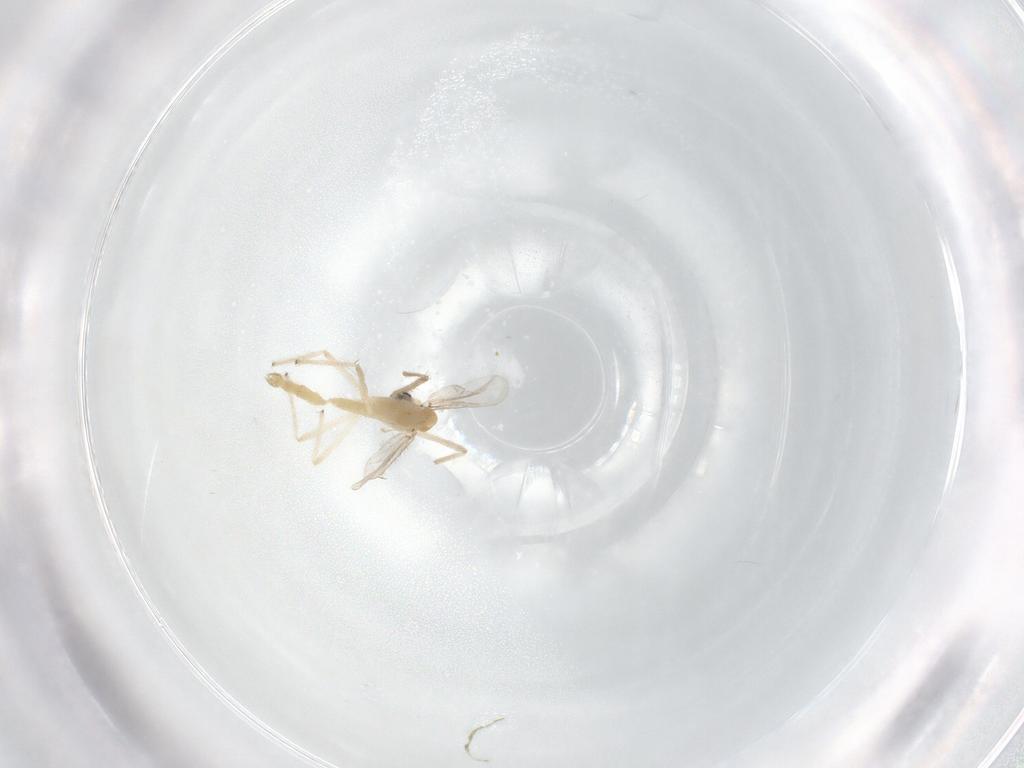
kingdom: Animalia
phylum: Arthropoda
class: Insecta
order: Diptera
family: Chironomidae
